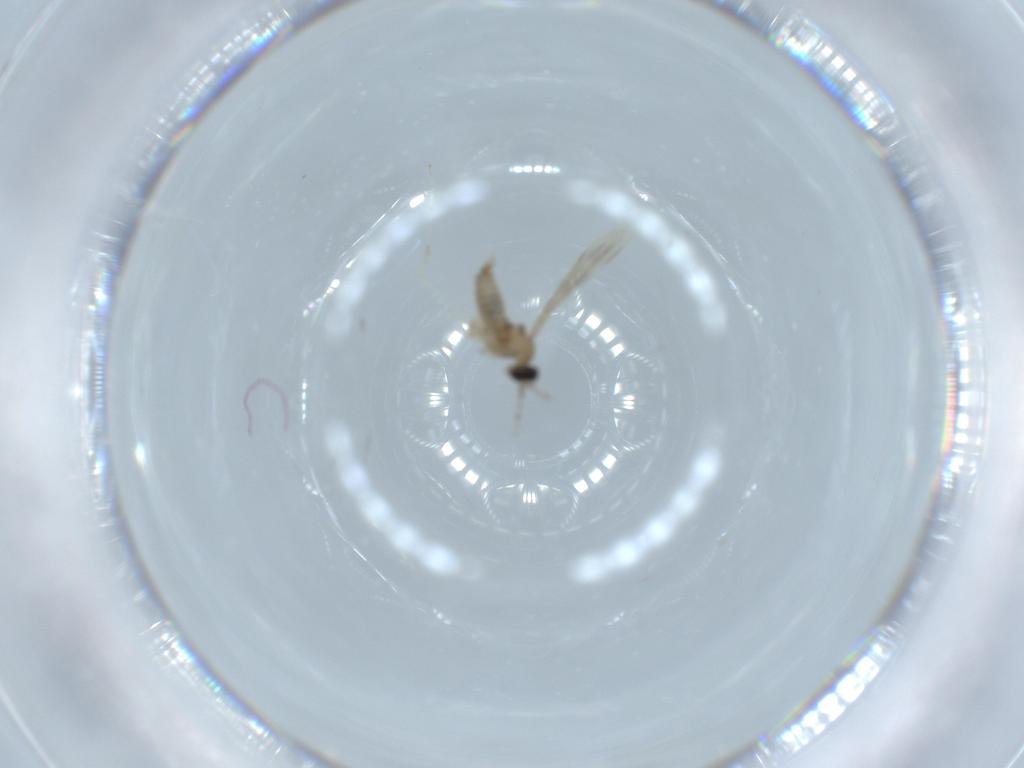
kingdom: Animalia
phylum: Arthropoda
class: Insecta
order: Diptera
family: Cecidomyiidae
